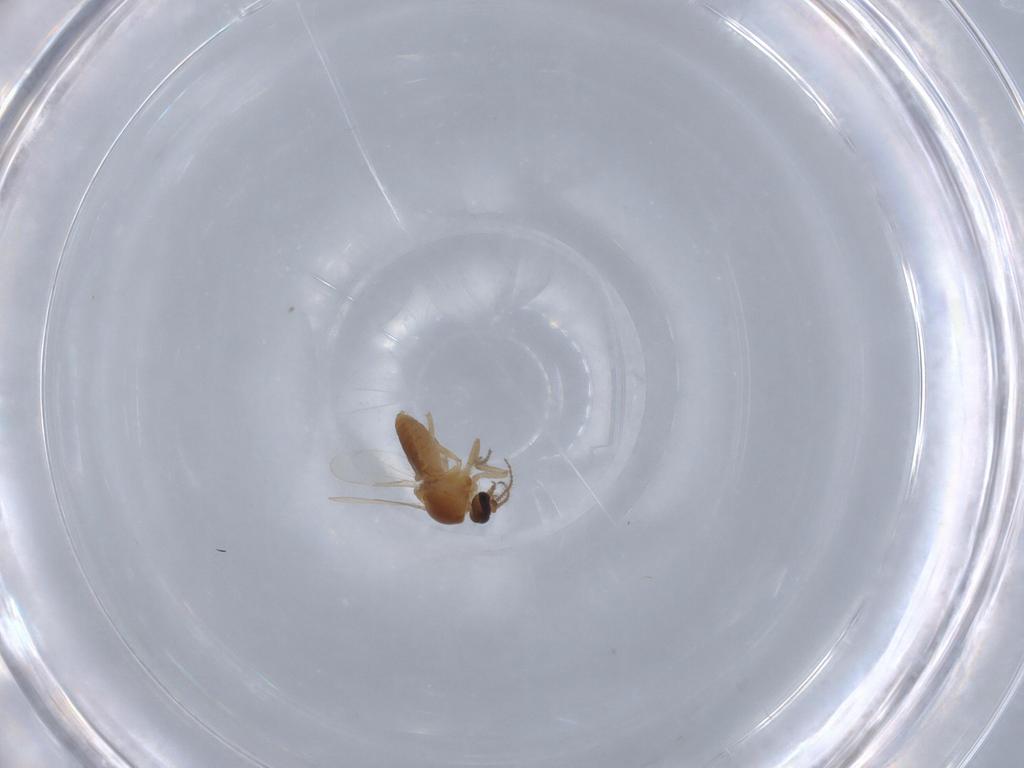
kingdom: Animalia
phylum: Arthropoda
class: Insecta
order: Diptera
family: Ceratopogonidae
